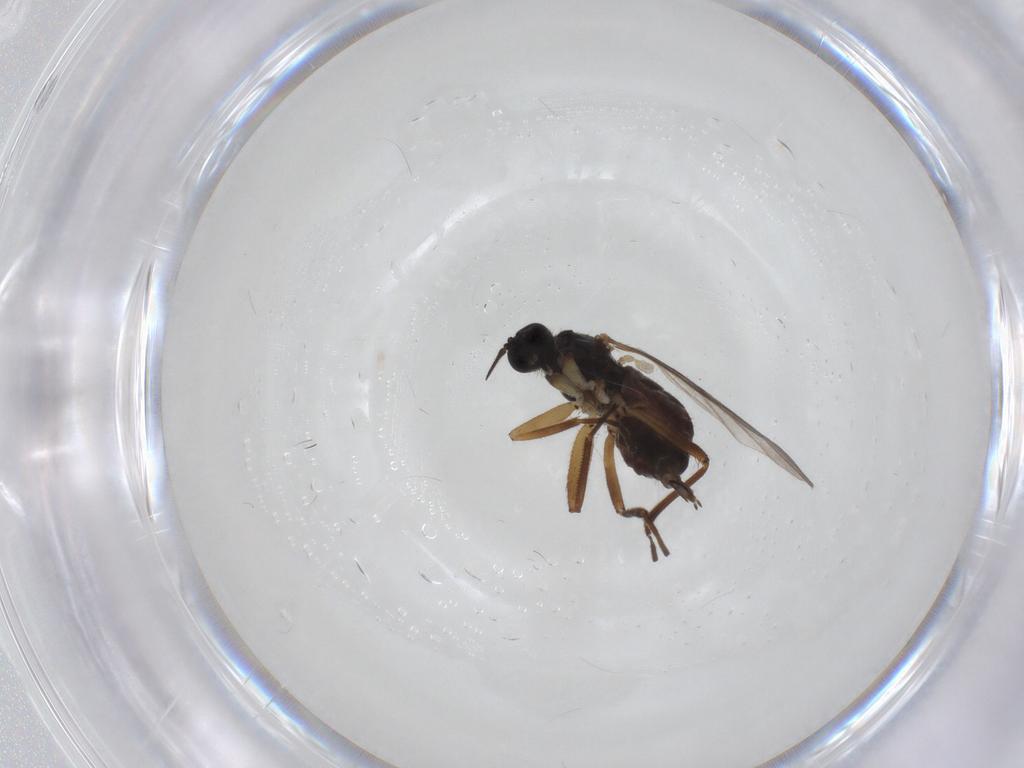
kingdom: Animalia
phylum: Arthropoda
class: Insecta
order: Diptera
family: Hybotidae
